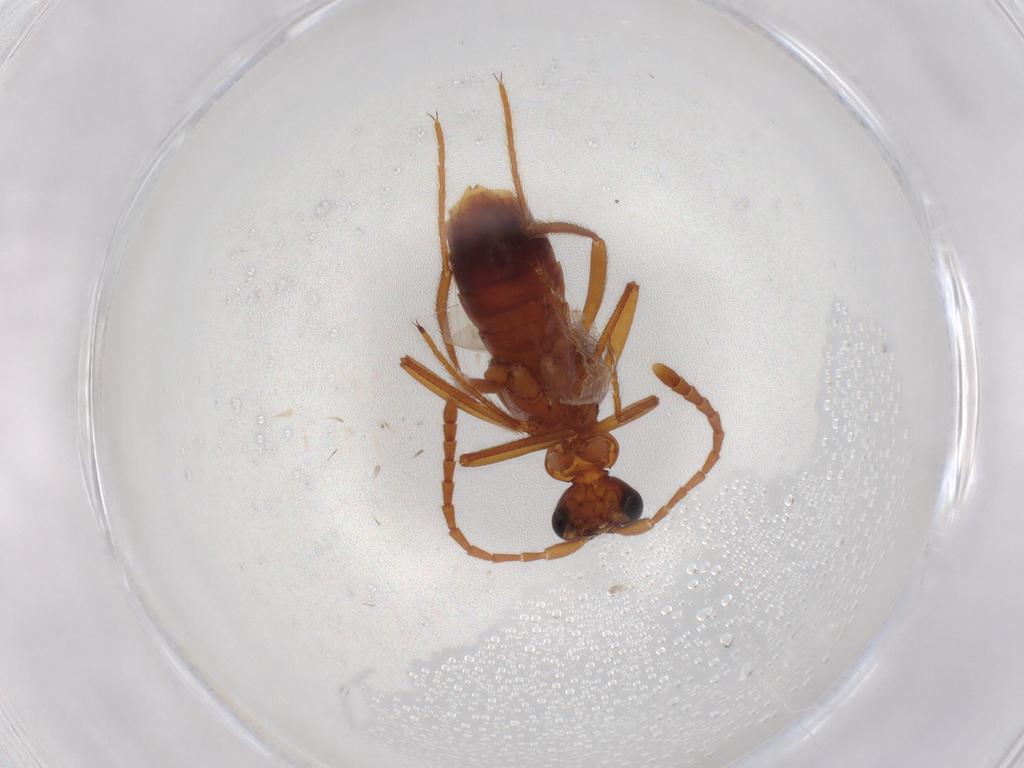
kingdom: Animalia
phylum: Arthropoda
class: Insecta
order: Coleoptera
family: Staphylinidae
